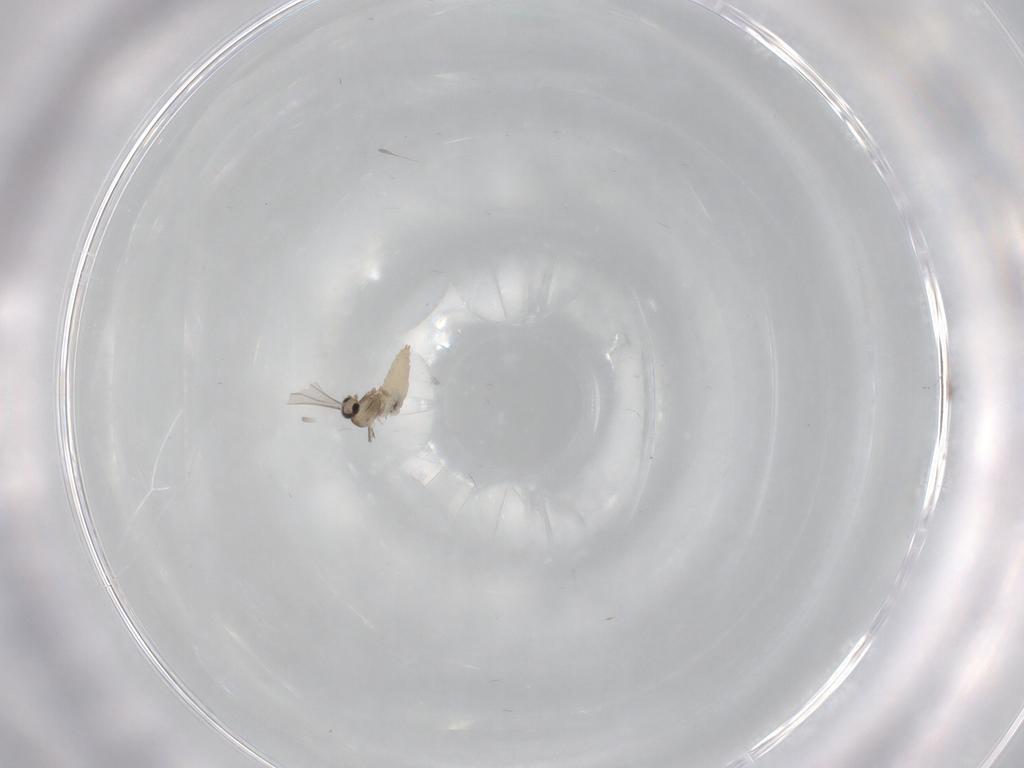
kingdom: Animalia
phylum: Arthropoda
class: Insecta
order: Diptera
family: Cecidomyiidae
